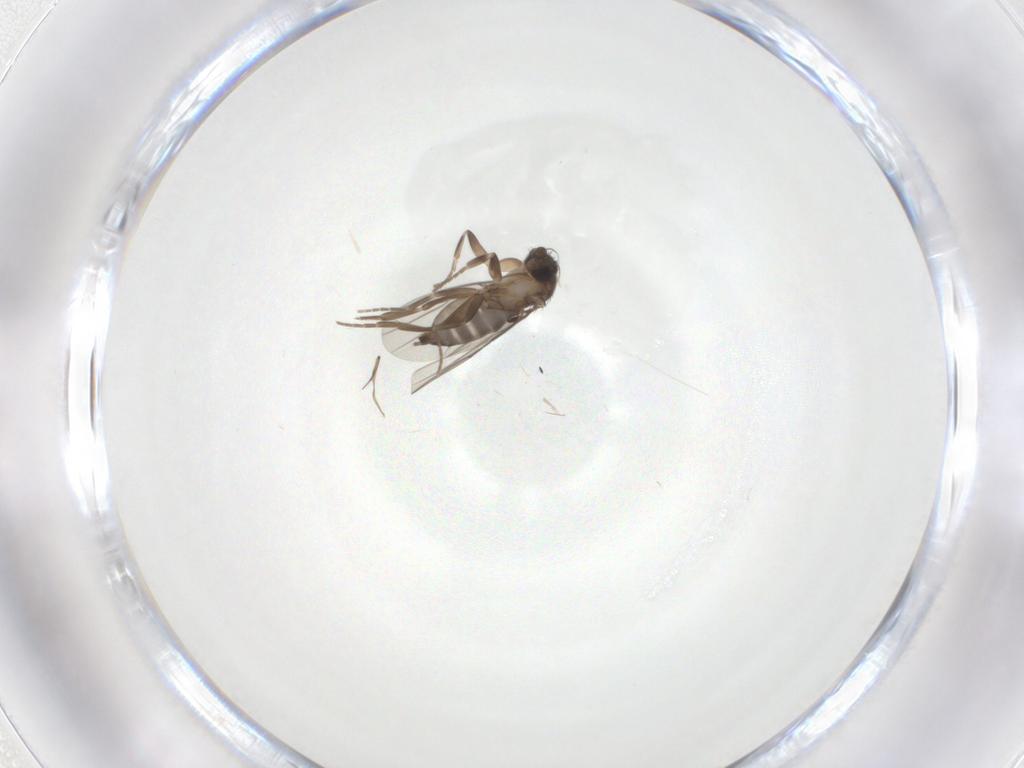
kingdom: Animalia
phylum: Arthropoda
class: Insecta
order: Diptera
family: Phoridae
